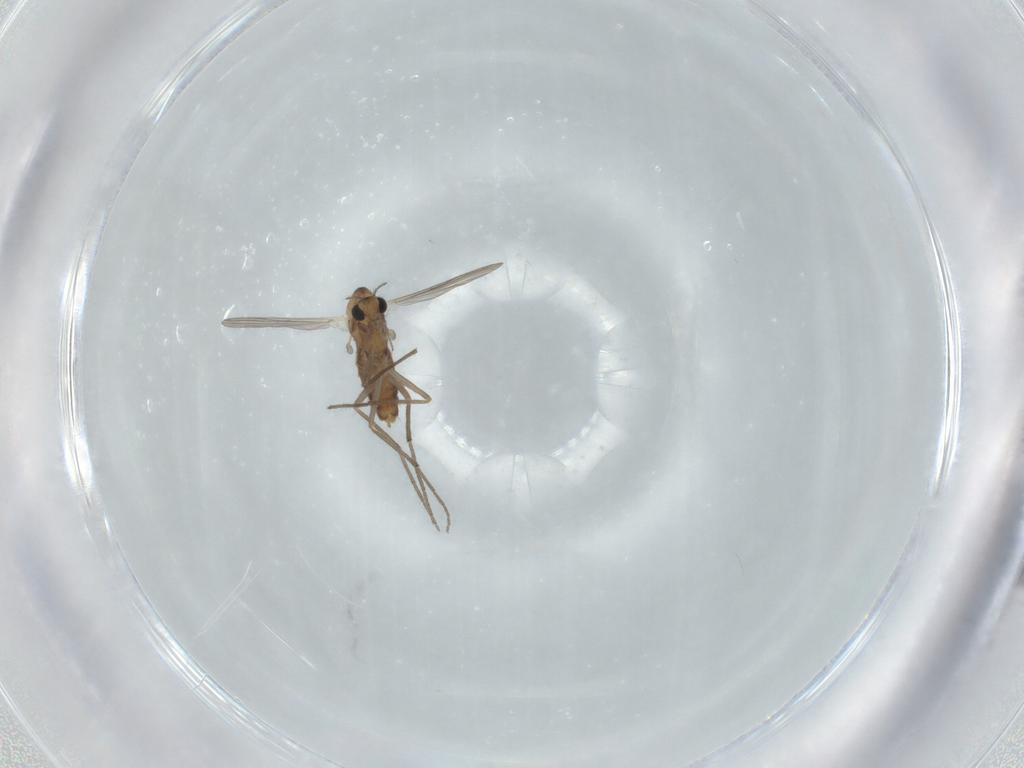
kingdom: Animalia
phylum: Arthropoda
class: Insecta
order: Diptera
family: Chironomidae
